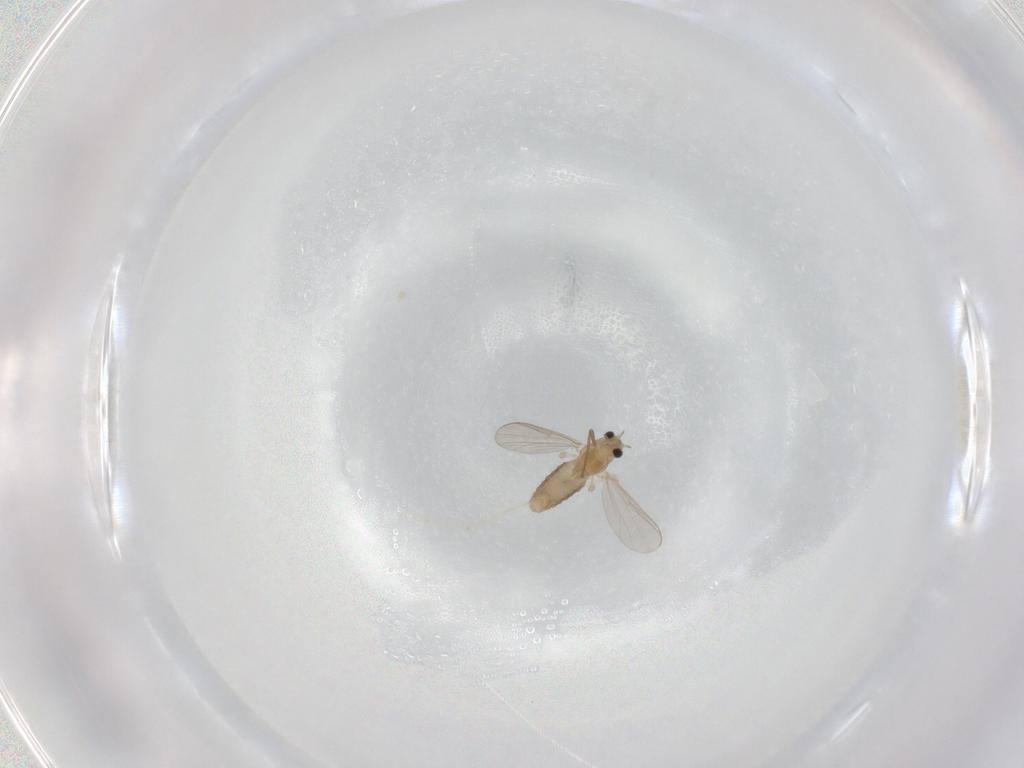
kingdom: Animalia
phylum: Arthropoda
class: Insecta
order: Diptera
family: Chironomidae
